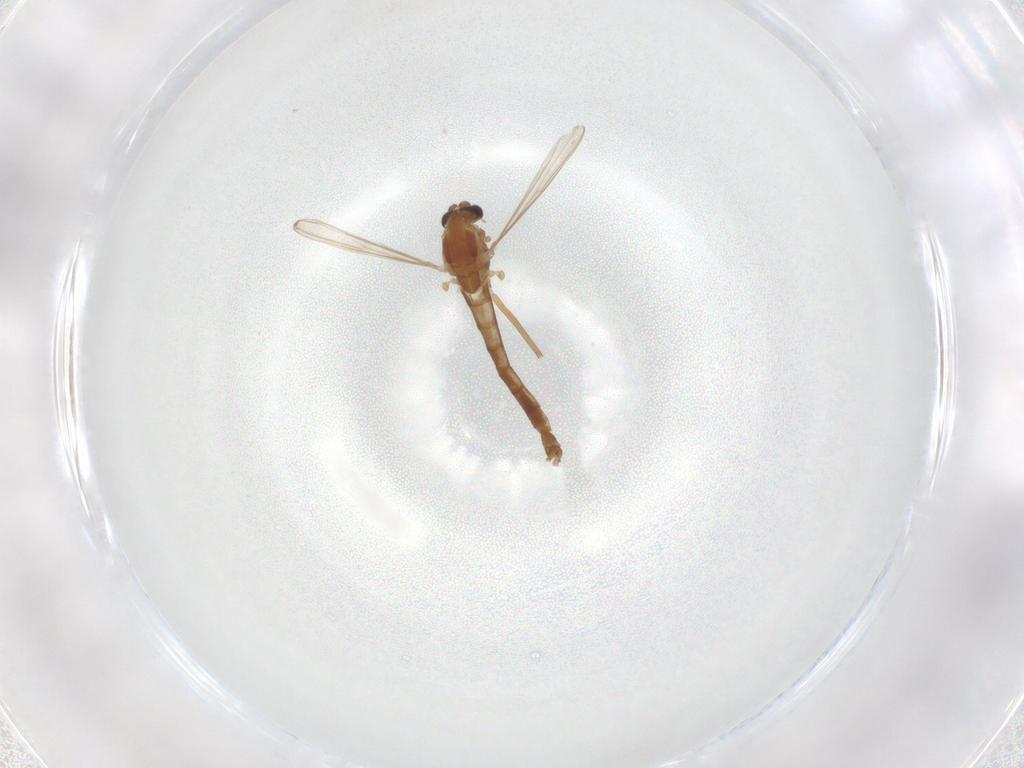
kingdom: Animalia
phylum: Arthropoda
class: Insecta
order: Diptera
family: Chironomidae
